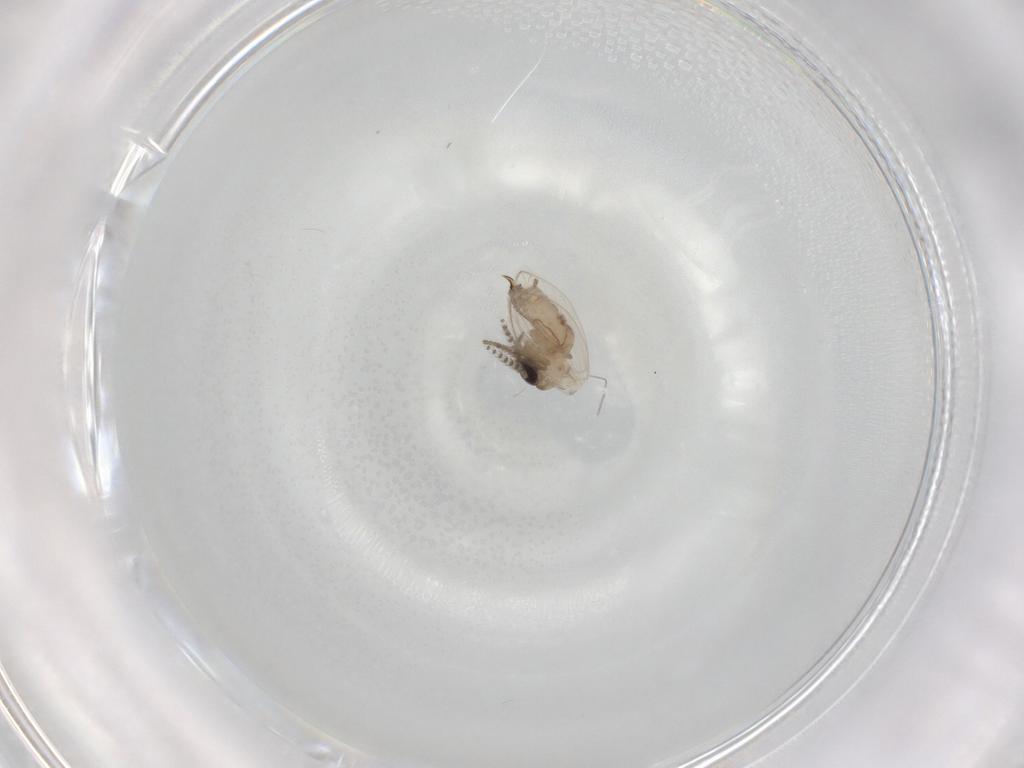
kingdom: Animalia
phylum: Arthropoda
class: Insecta
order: Diptera
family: Psychodidae
